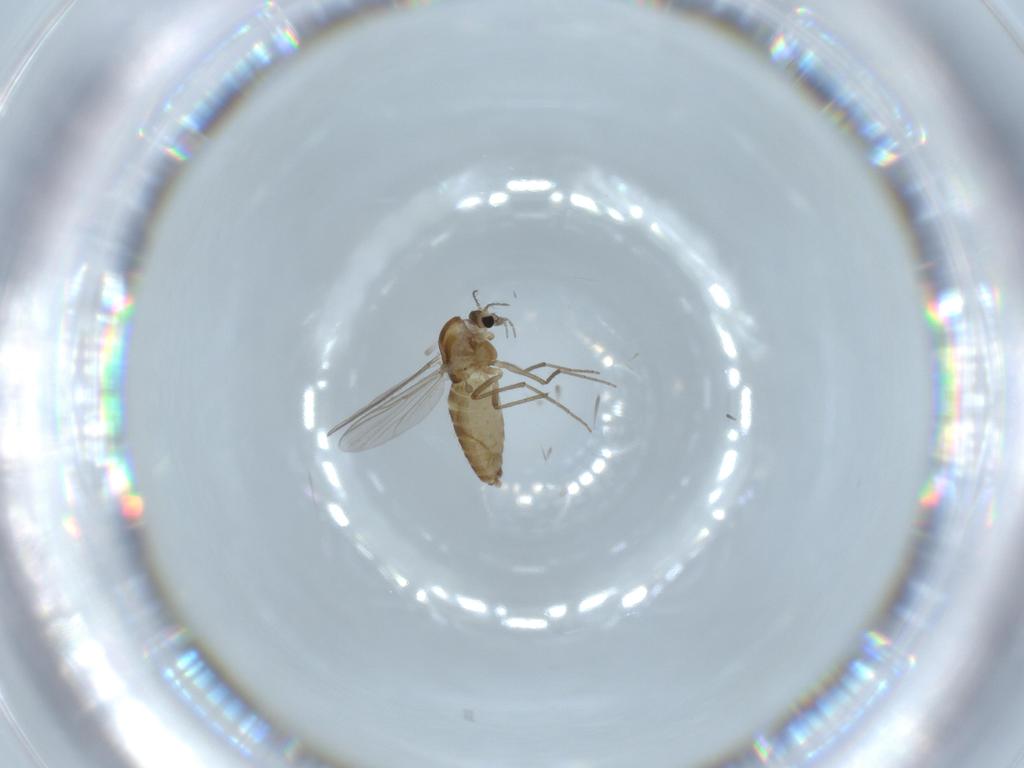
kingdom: Animalia
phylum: Arthropoda
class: Insecta
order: Diptera
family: Chironomidae
